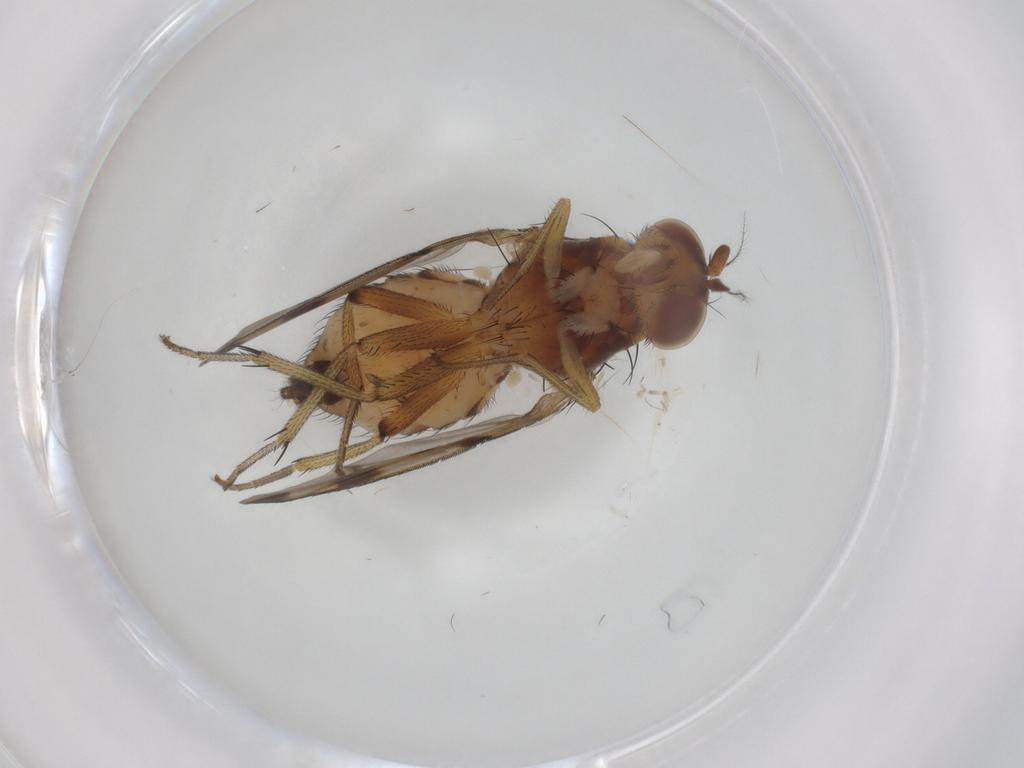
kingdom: Animalia
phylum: Arthropoda
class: Insecta
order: Diptera
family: Lauxaniidae
